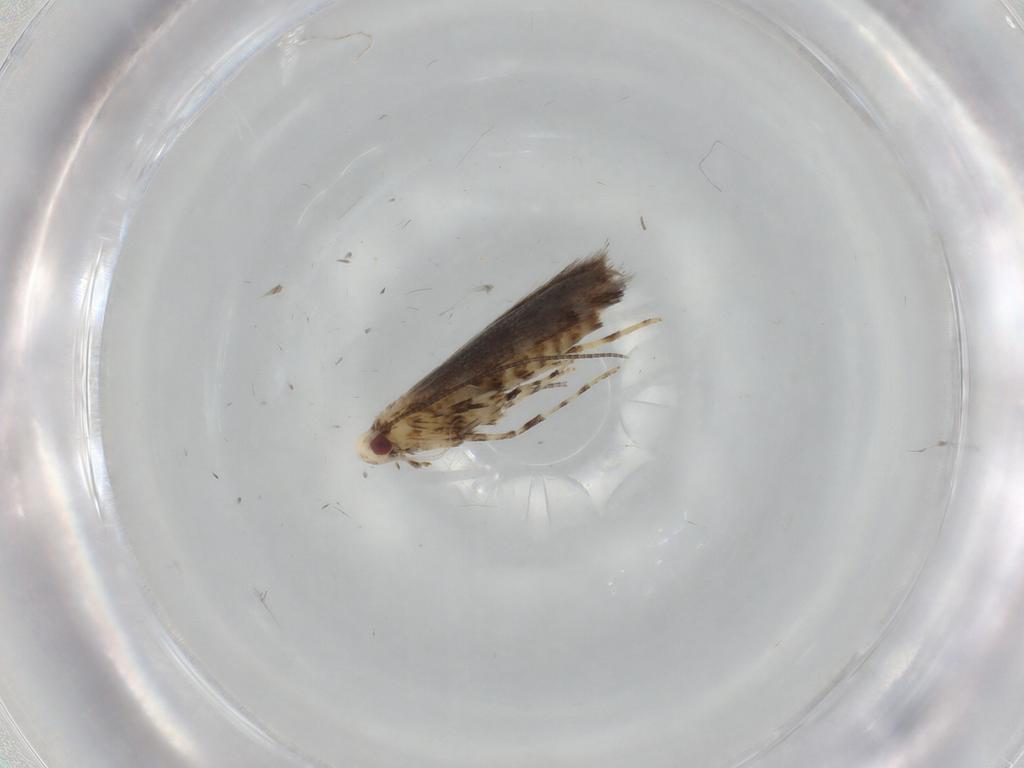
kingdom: Animalia
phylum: Arthropoda
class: Insecta
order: Lepidoptera
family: Gracillariidae
